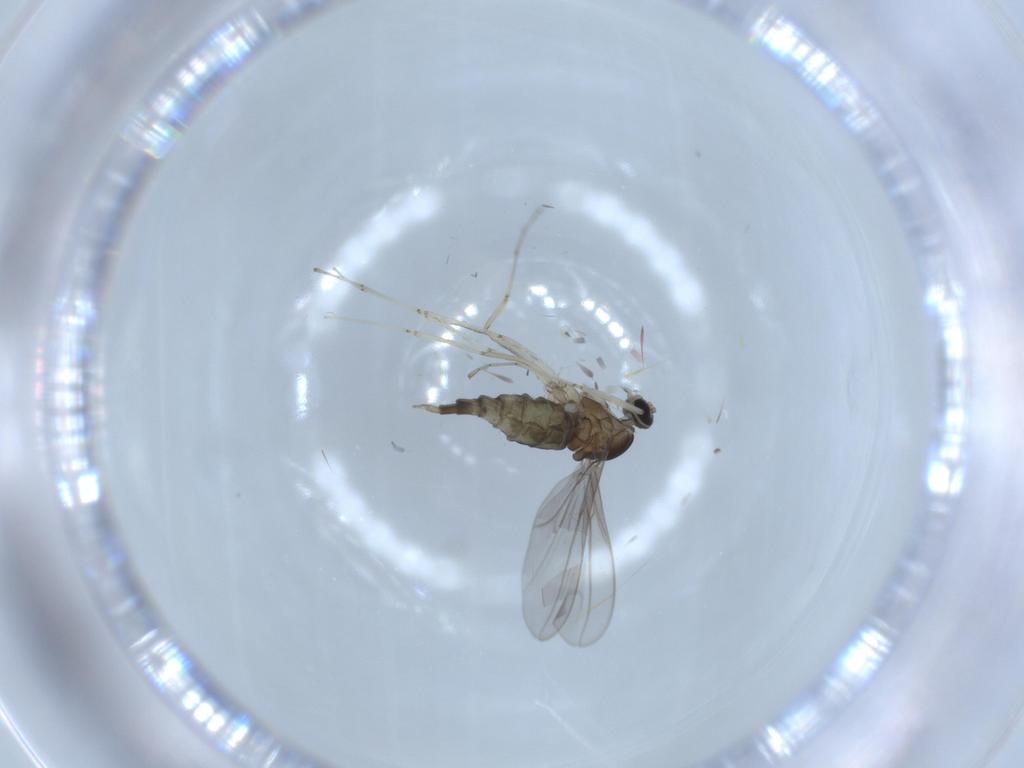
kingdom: Animalia
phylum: Arthropoda
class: Insecta
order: Diptera
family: Cecidomyiidae
